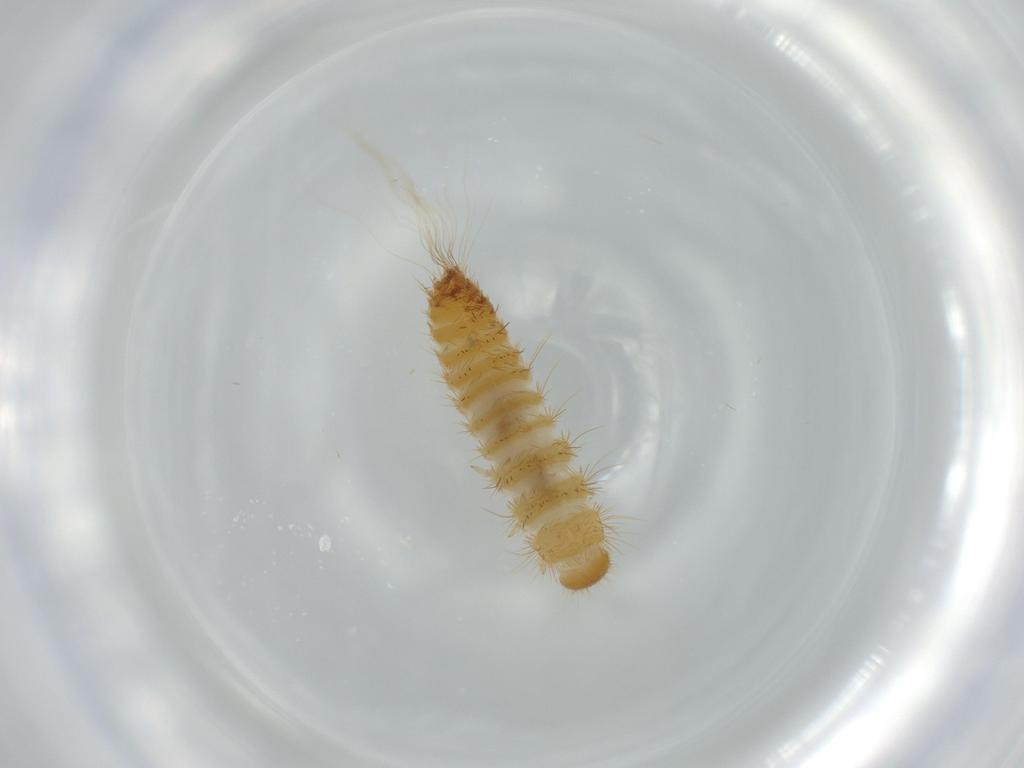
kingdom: Animalia
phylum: Arthropoda
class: Insecta
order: Coleoptera
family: Dermestidae
